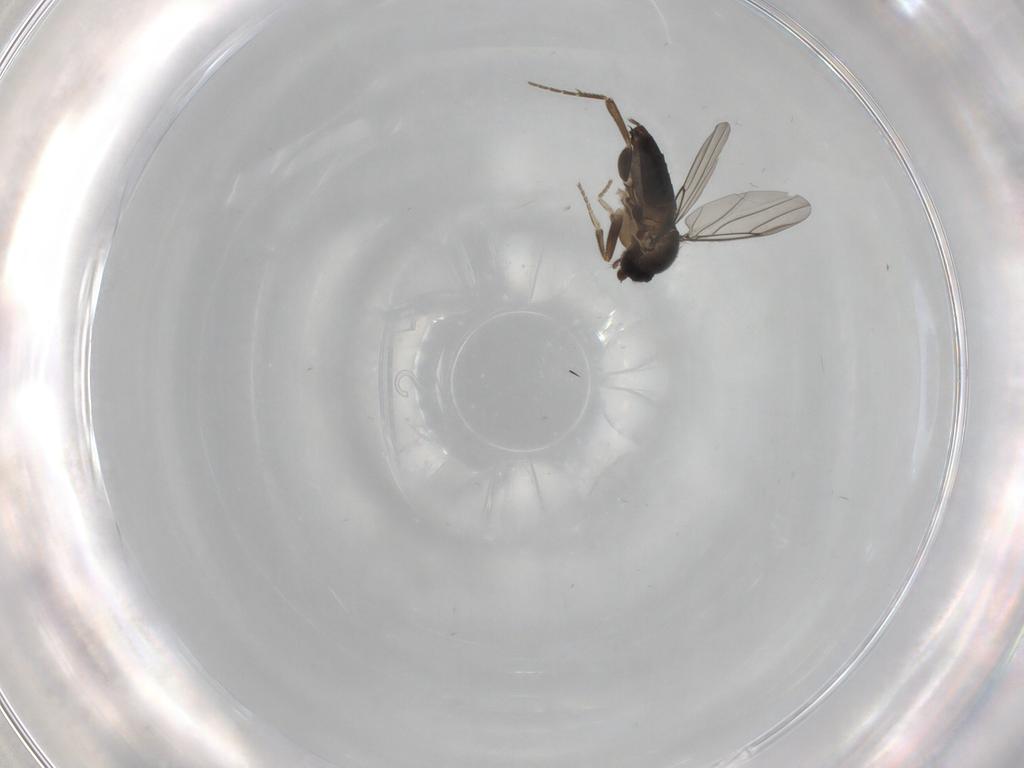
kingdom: Animalia
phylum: Arthropoda
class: Insecta
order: Diptera
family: Phoridae
